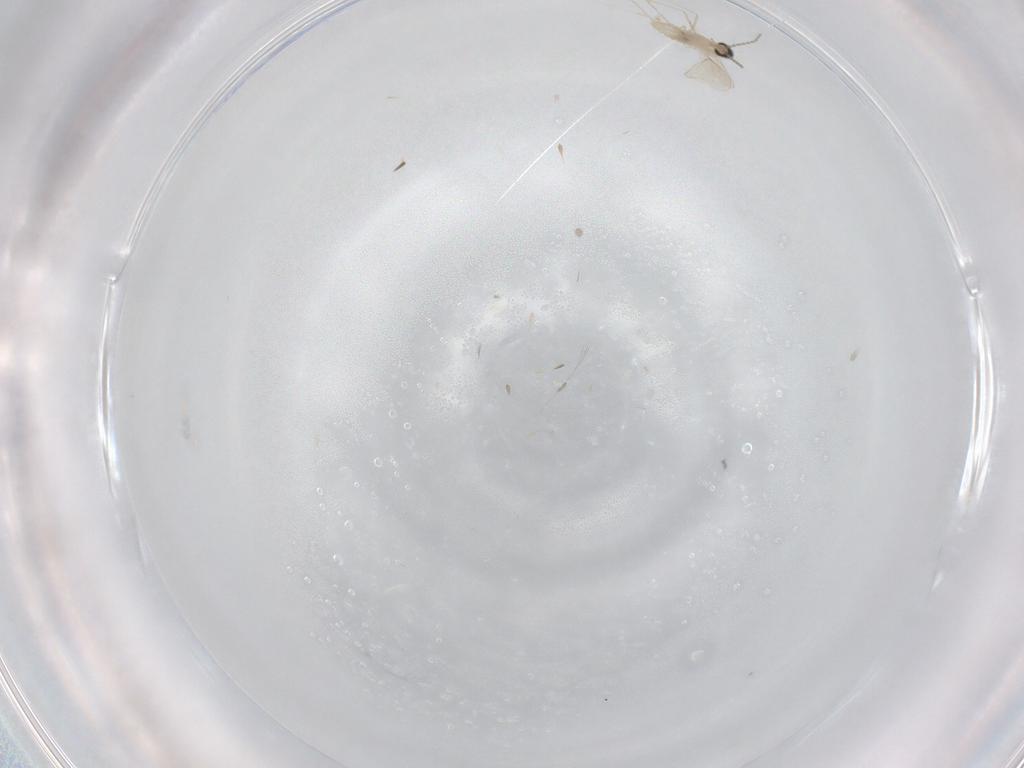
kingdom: Animalia
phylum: Arthropoda
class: Insecta
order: Diptera
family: Cecidomyiidae
